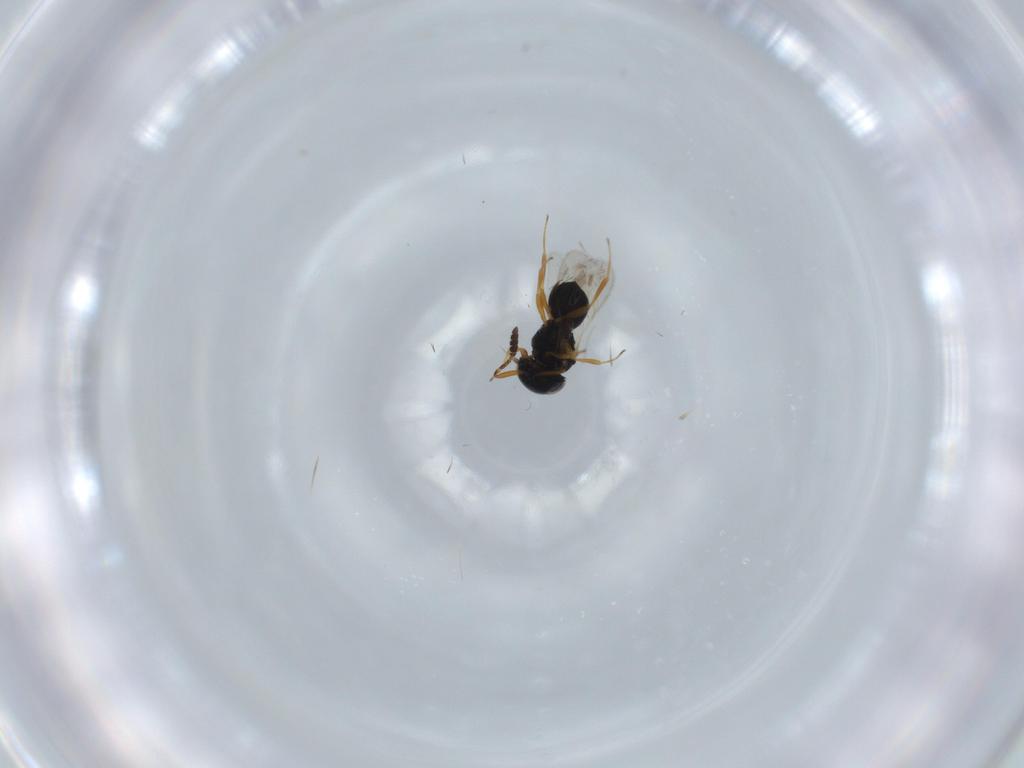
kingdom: Animalia
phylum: Arthropoda
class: Insecta
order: Hymenoptera
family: Scelionidae
